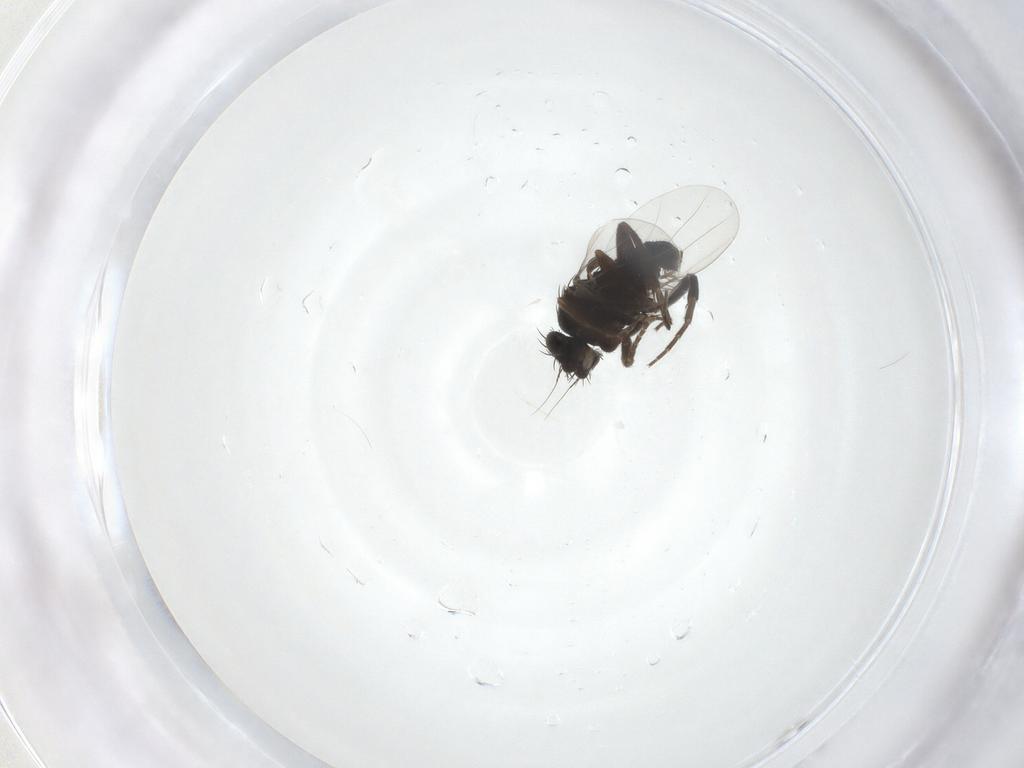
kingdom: Animalia
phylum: Arthropoda
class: Insecta
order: Diptera
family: Phoridae
